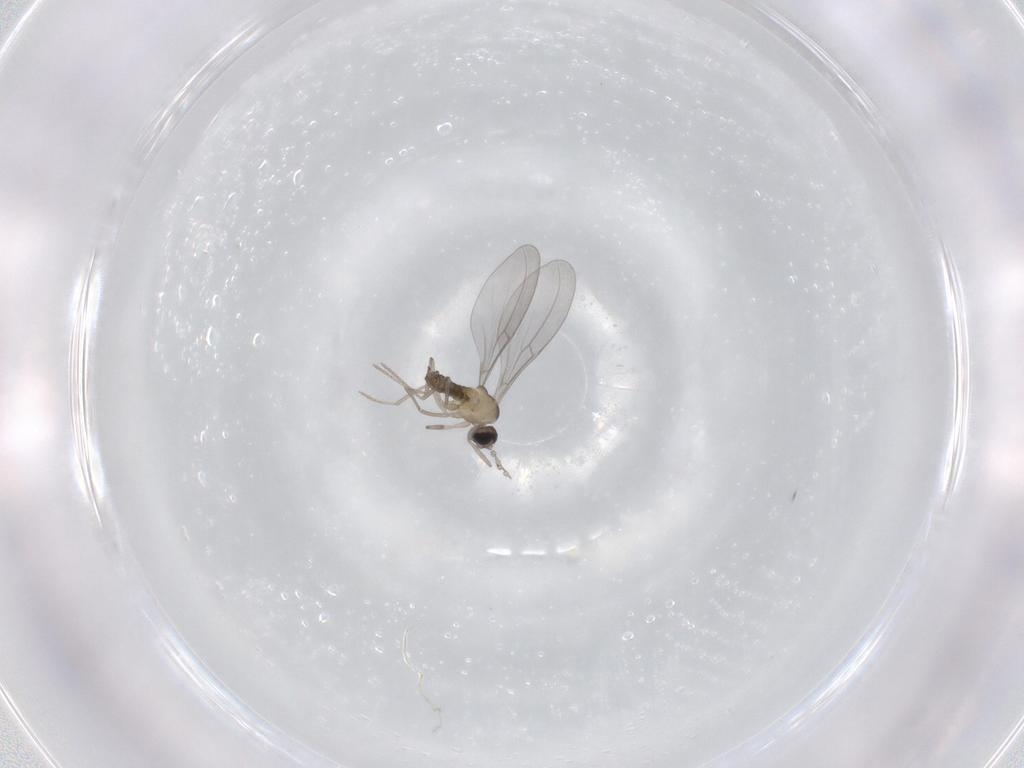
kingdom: Animalia
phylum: Arthropoda
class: Insecta
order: Diptera
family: Cecidomyiidae
